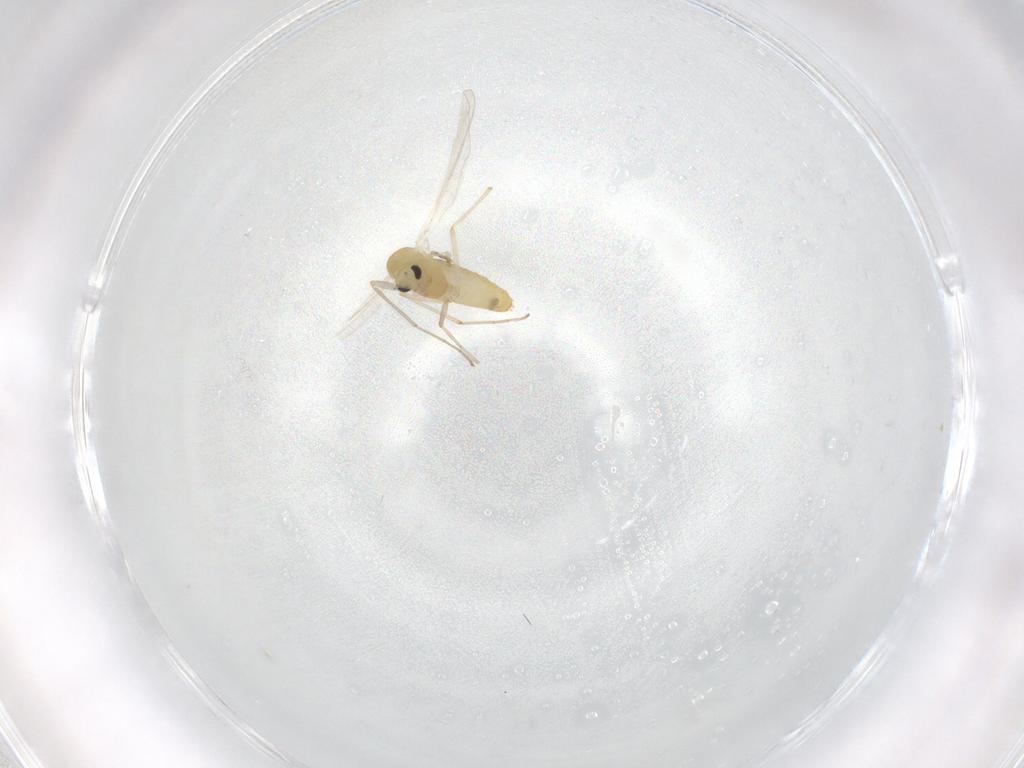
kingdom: Animalia
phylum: Arthropoda
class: Insecta
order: Diptera
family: Chironomidae
